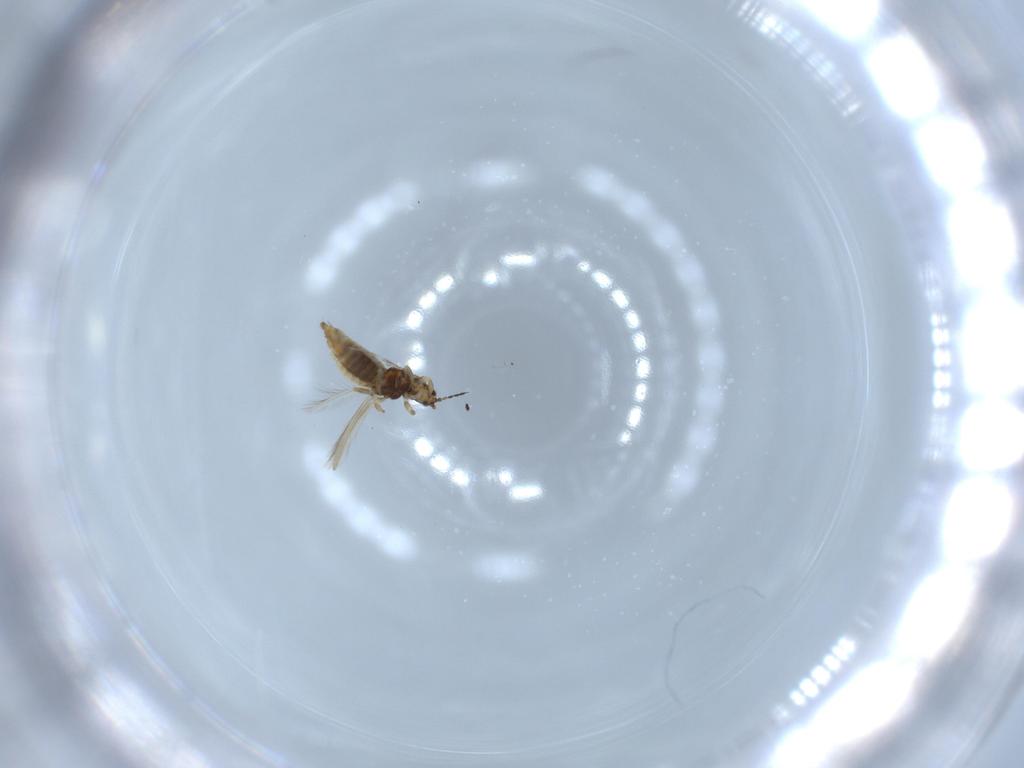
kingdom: Animalia
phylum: Arthropoda
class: Insecta
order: Thysanoptera
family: Thripidae
